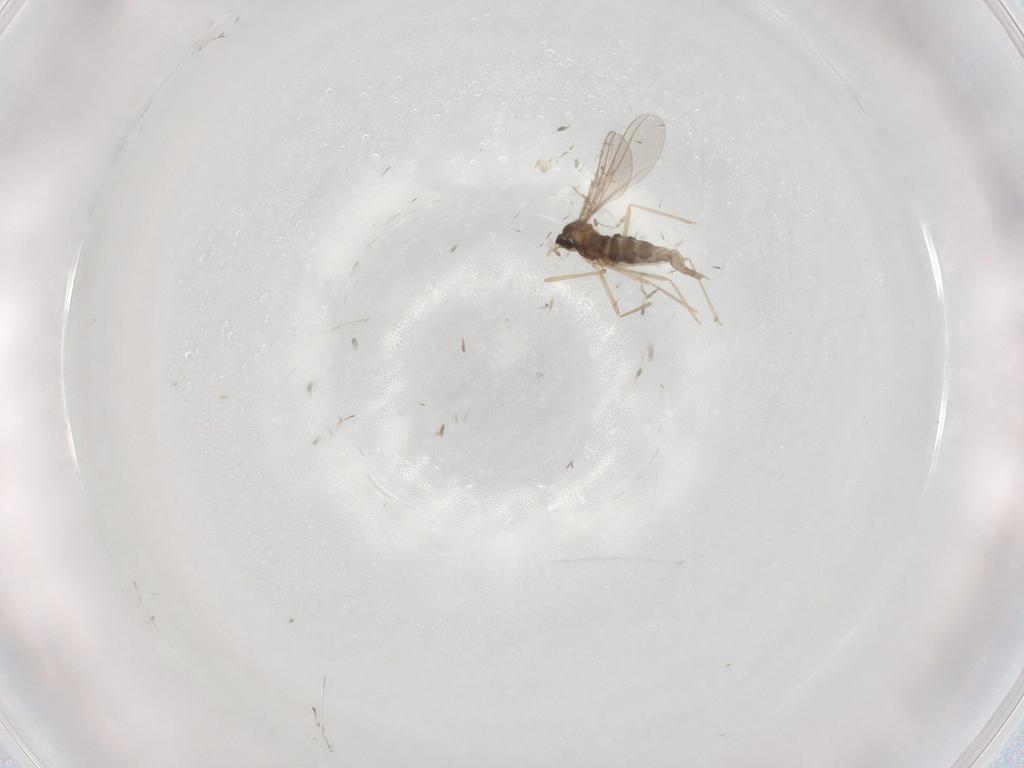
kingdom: Animalia
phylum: Arthropoda
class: Insecta
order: Diptera
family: Cecidomyiidae
